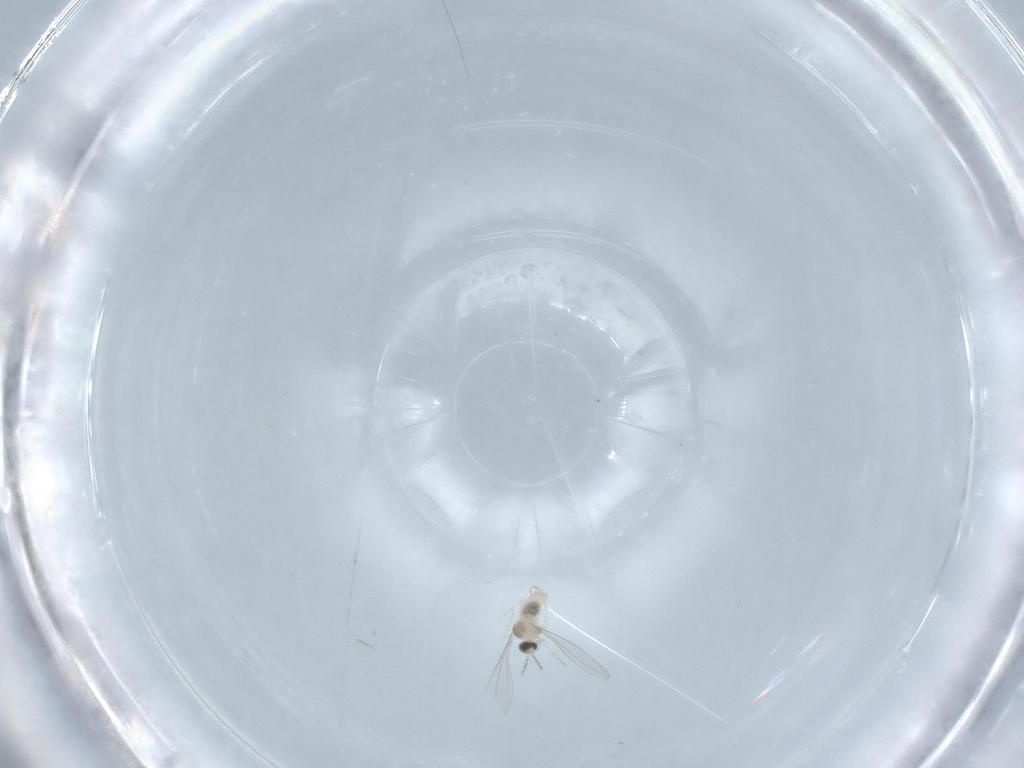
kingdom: Animalia
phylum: Arthropoda
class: Insecta
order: Diptera
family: Cecidomyiidae
